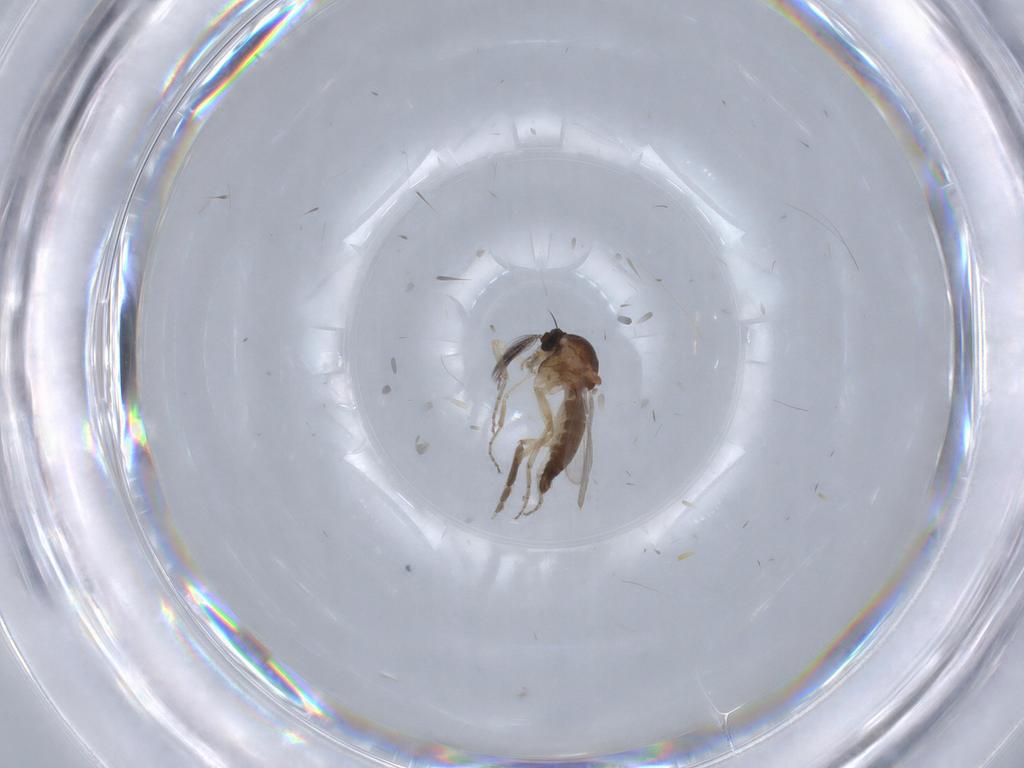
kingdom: Animalia
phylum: Arthropoda
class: Insecta
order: Diptera
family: Ceratopogonidae
